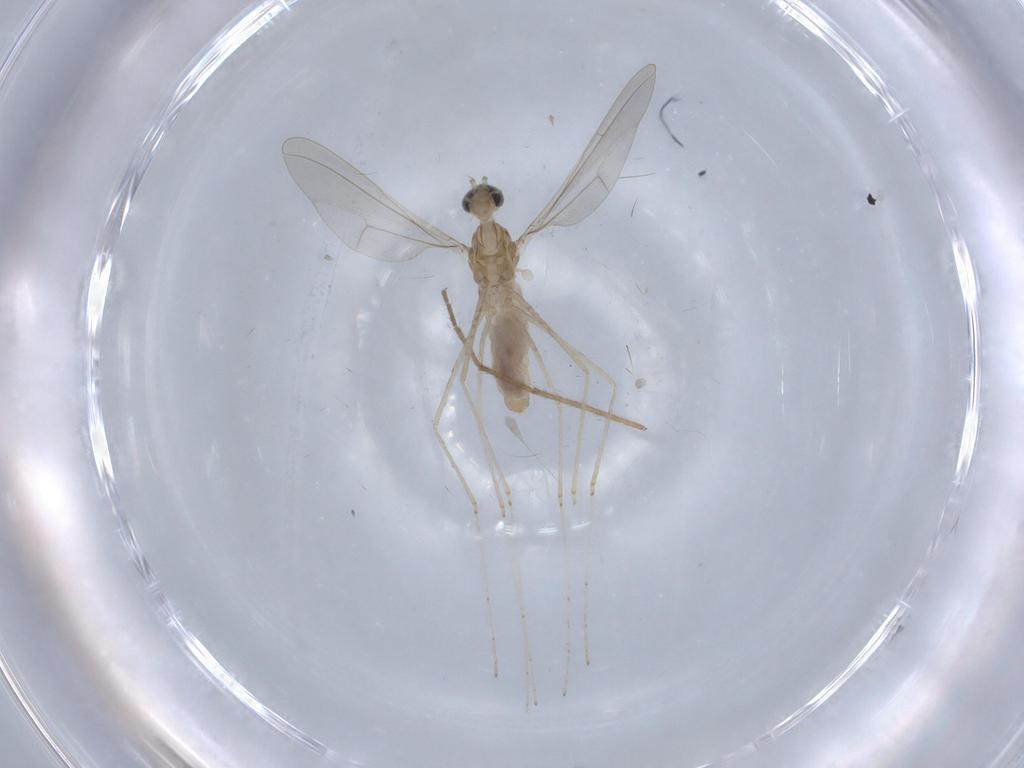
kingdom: Animalia
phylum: Arthropoda
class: Insecta
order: Diptera
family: Cecidomyiidae
